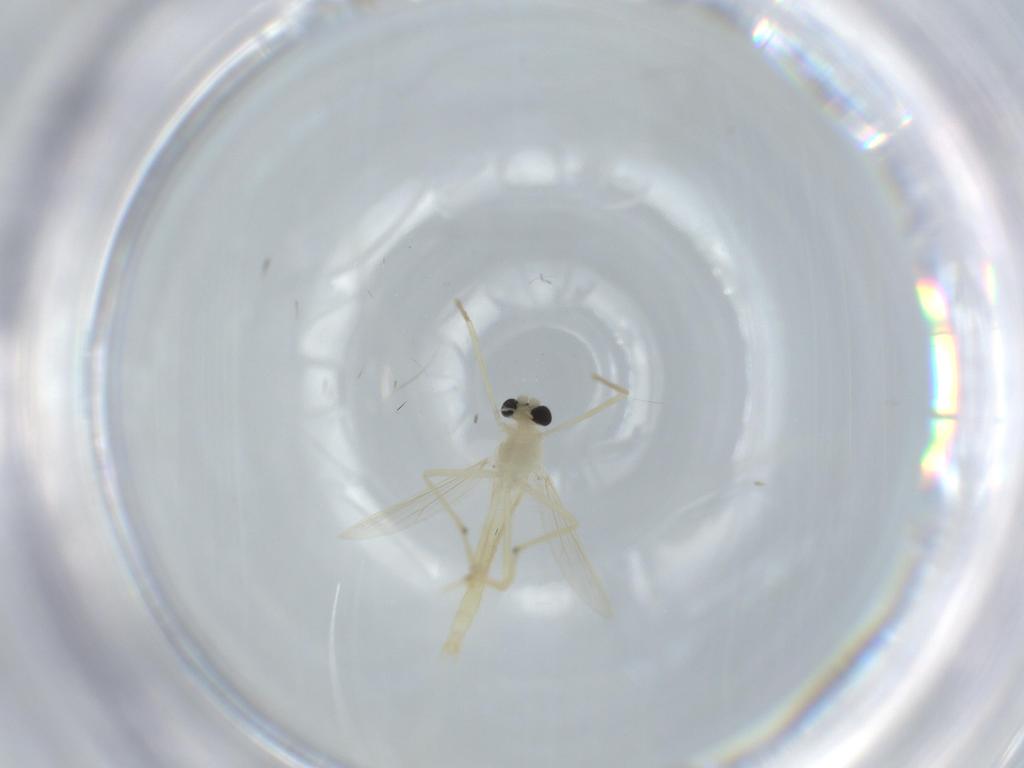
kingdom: Animalia
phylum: Arthropoda
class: Insecta
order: Diptera
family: Chironomidae
